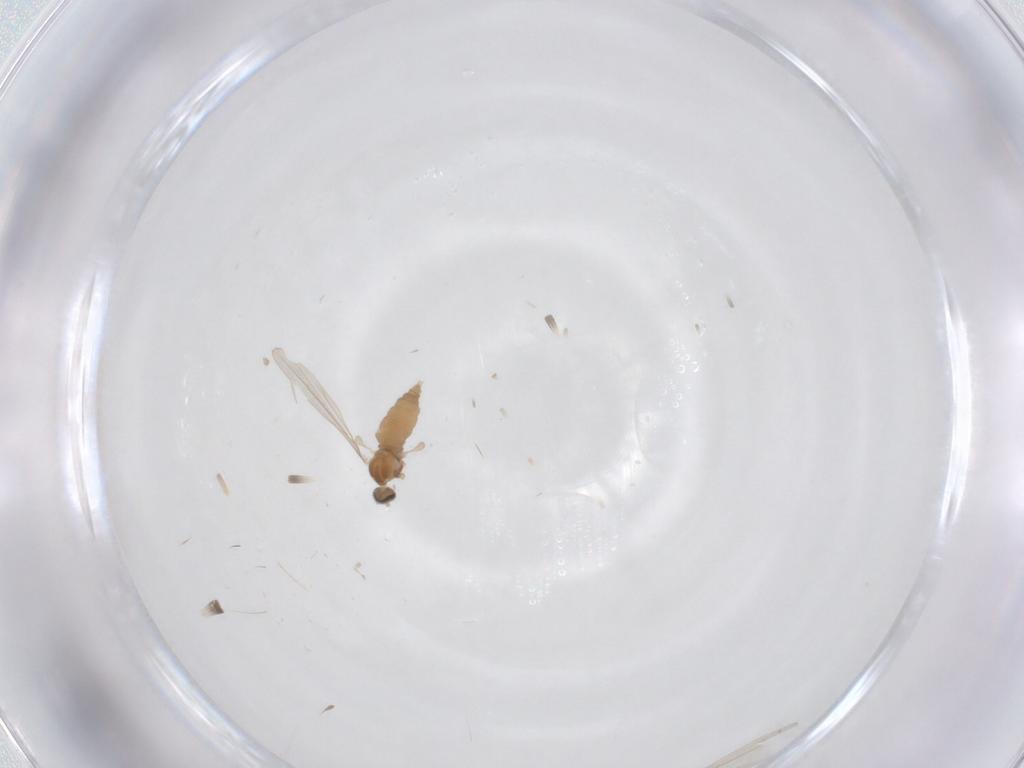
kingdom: Animalia
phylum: Arthropoda
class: Insecta
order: Diptera
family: Cecidomyiidae
